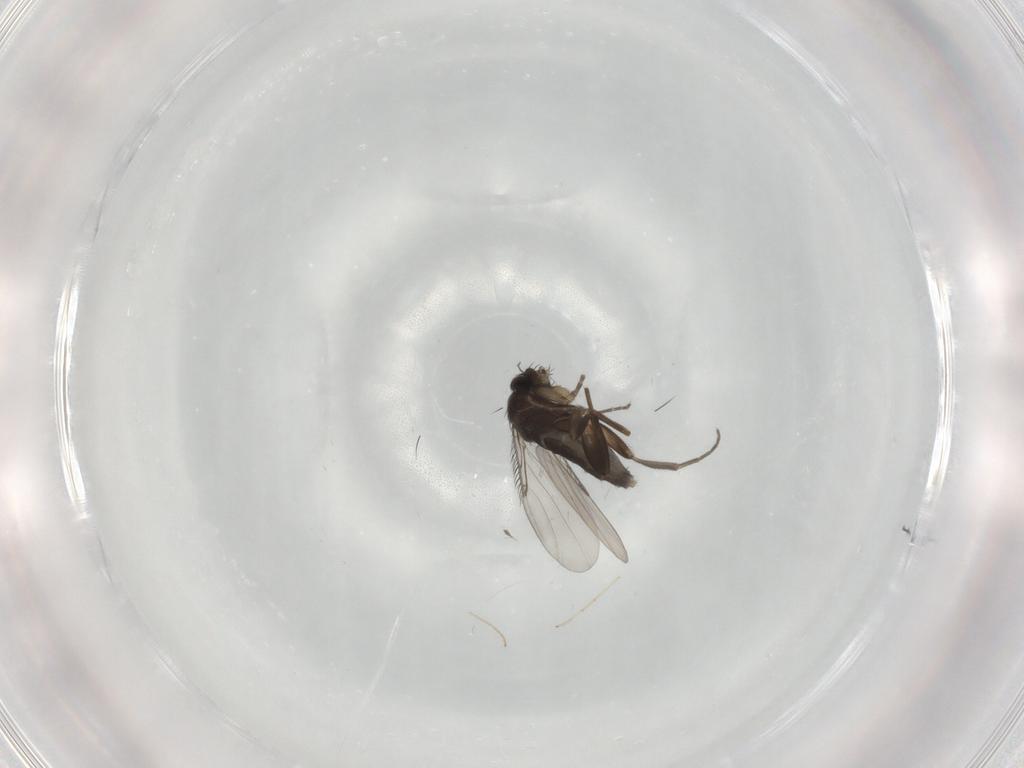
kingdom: Animalia
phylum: Arthropoda
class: Insecta
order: Diptera
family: Phoridae
